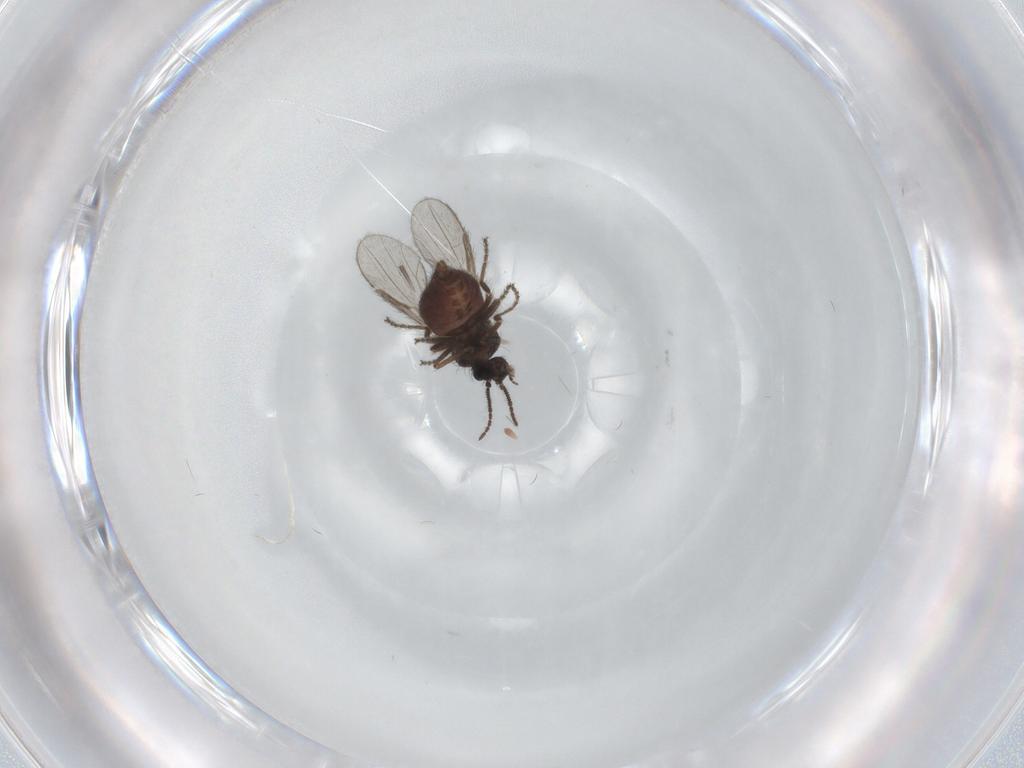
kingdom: Animalia
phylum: Arthropoda
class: Insecta
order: Diptera
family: Ceratopogonidae
